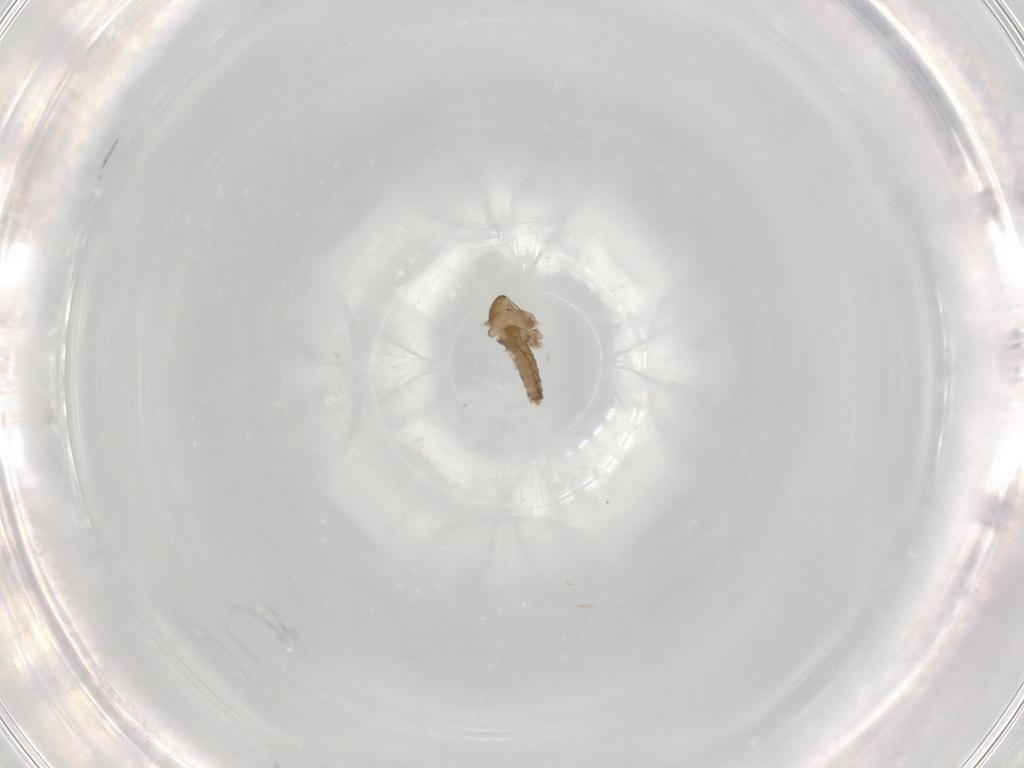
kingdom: Animalia
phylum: Arthropoda
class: Insecta
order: Diptera
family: Cecidomyiidae
